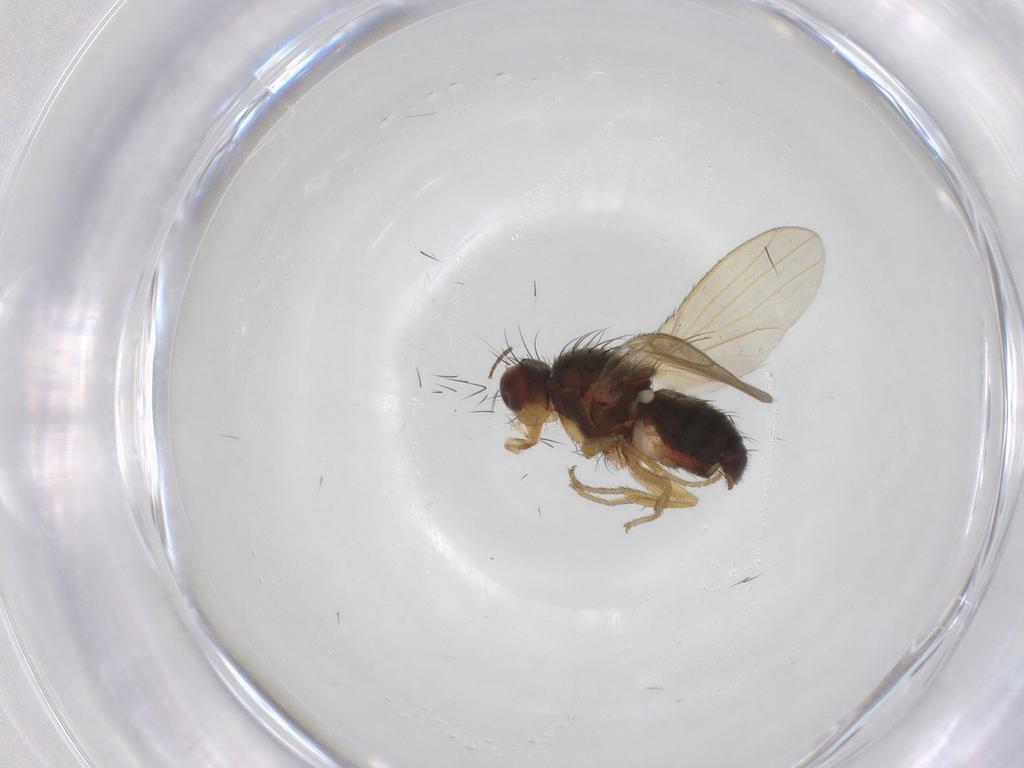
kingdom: Animalia
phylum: Arthropoda
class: Insecta
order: Diptera
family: Heleomyzidae
